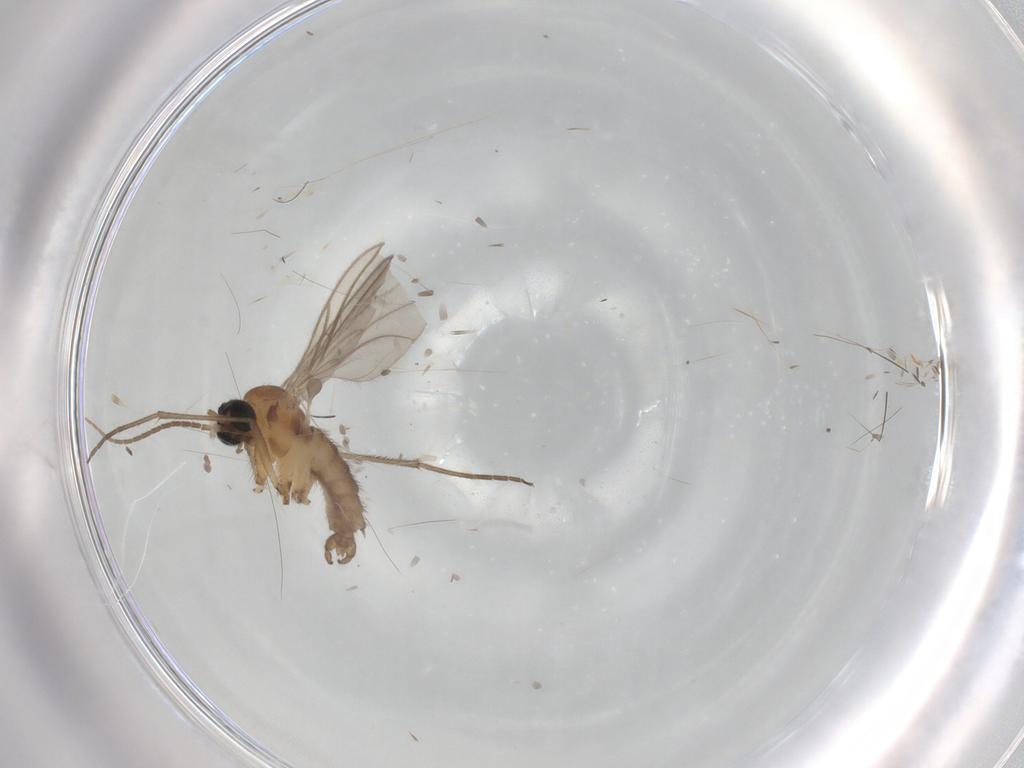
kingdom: Animalia
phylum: Arthropoda
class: Insecta
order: Diptera
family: Sciaridae
